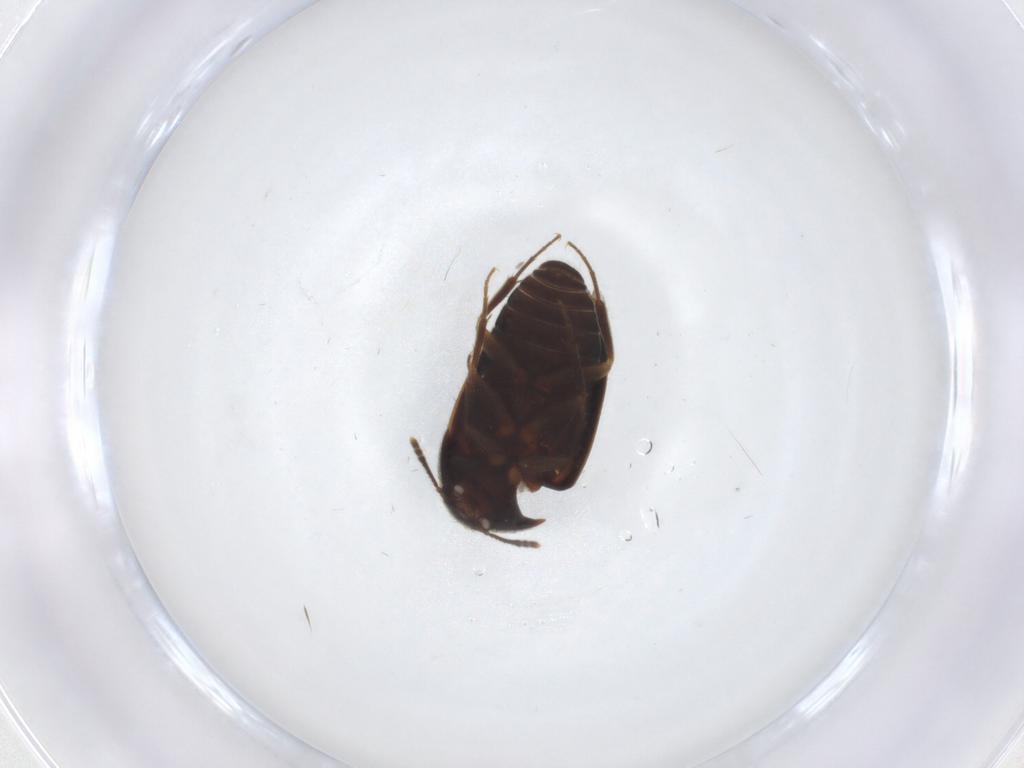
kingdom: Animalia
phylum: Arthropoda
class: Insecta
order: Coleoptera
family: Mycetophagidae
